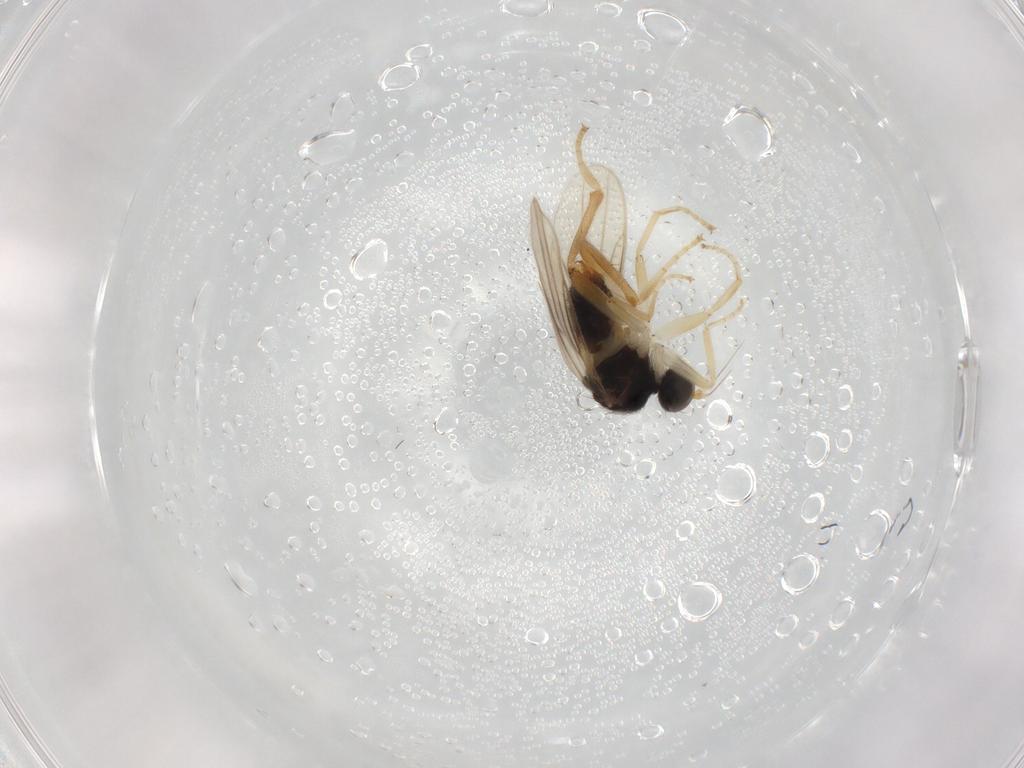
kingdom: Animalia
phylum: Arthropoda
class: Insecta
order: Diptera
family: Hybotidae
